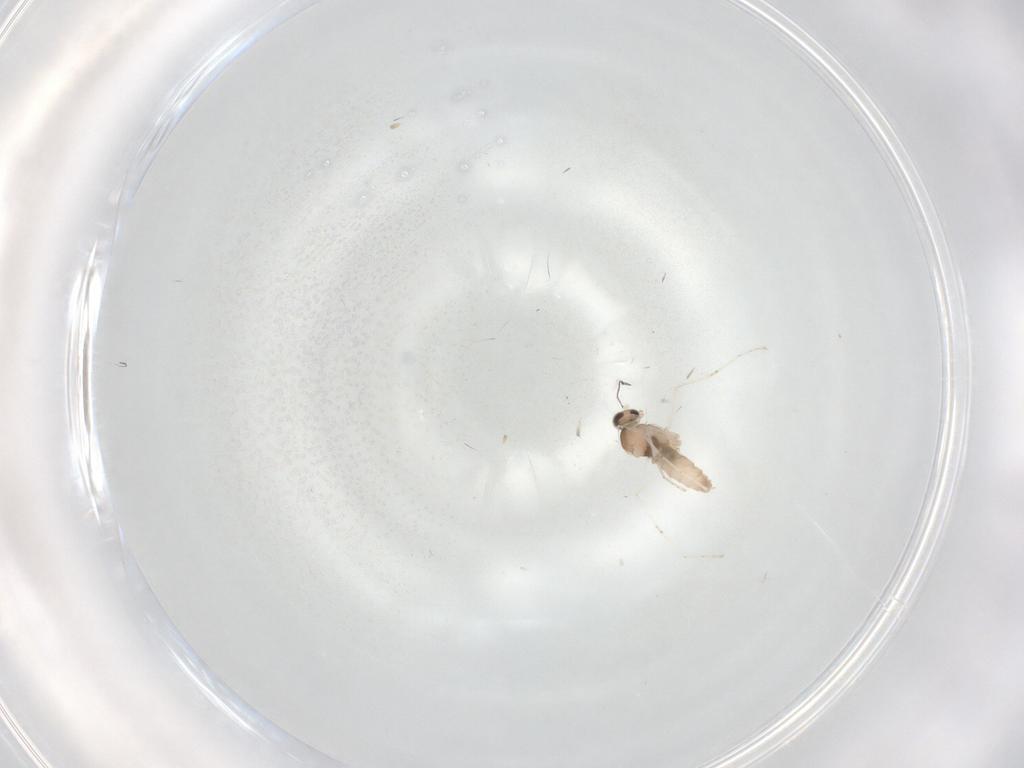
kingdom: Animalia
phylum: Arthropoda
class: Insecta
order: Diptera
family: Cecidomyiidae
